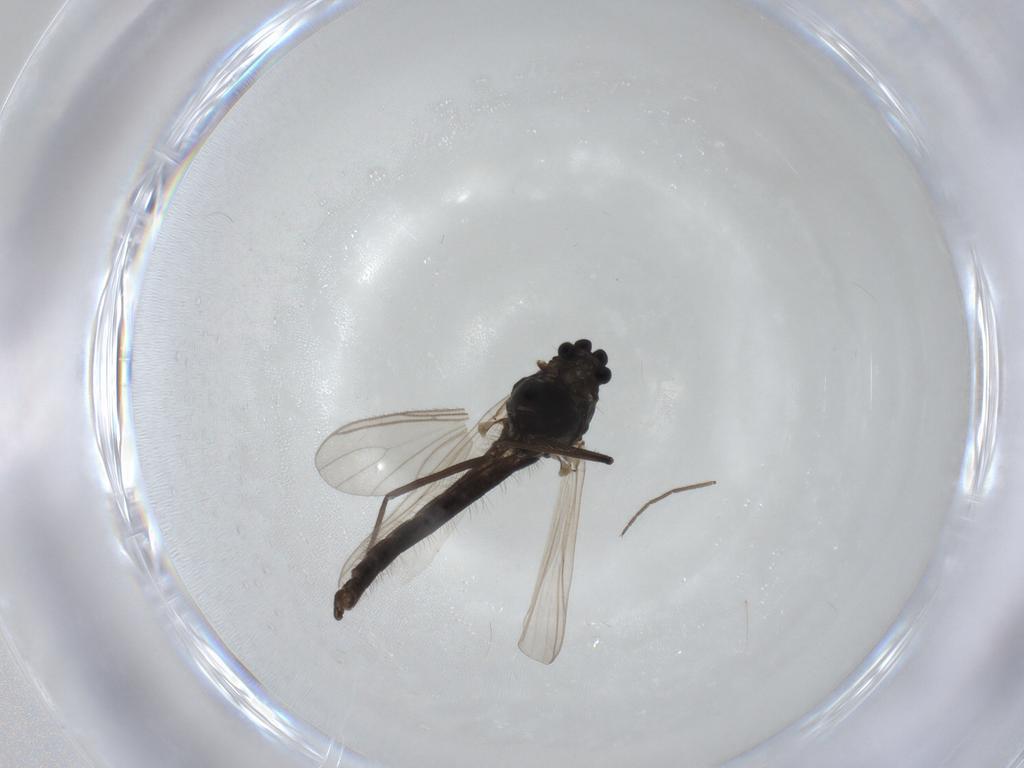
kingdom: Animalia
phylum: Arthropoda
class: Insecta
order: Diptera
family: Chironomidae
